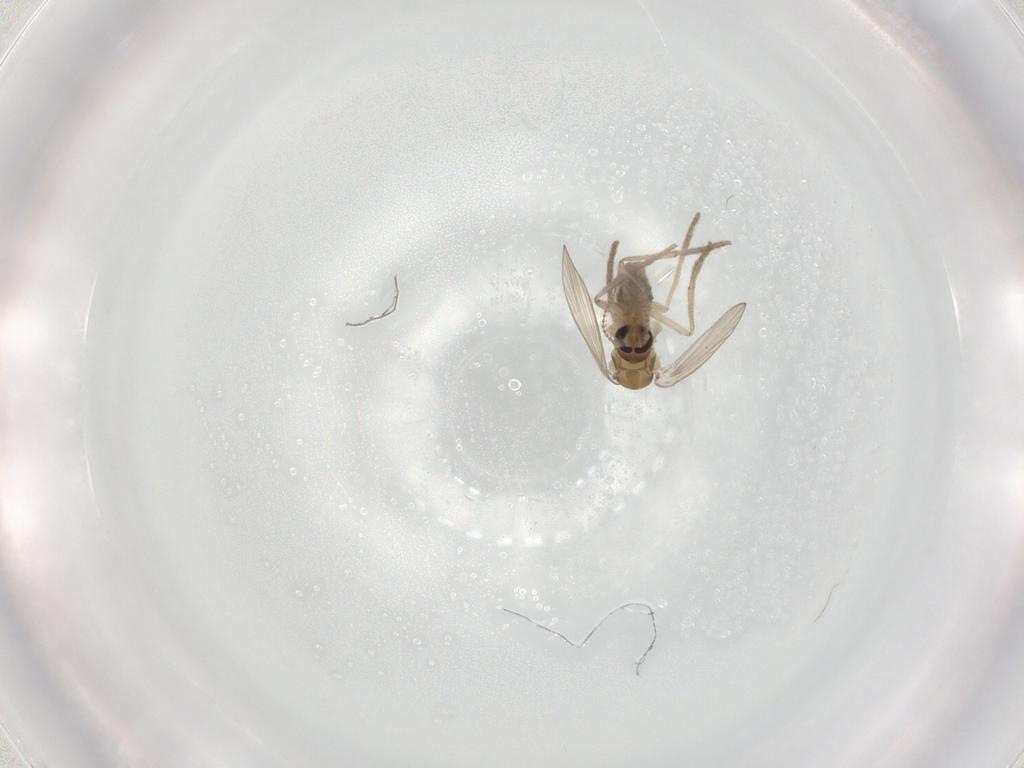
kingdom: Animalia
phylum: Arthropoda
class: Insecta
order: Diptera
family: Psychodidae
